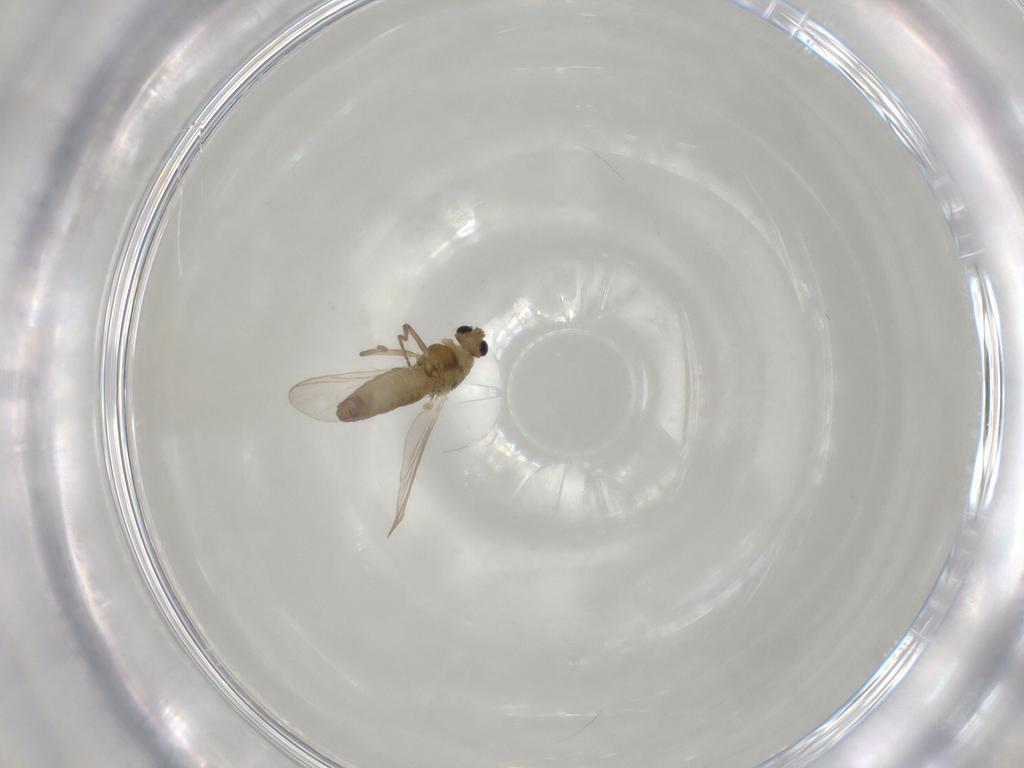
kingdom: Animalia
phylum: Arthropoda
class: Insecta
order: Diptera
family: Chironomidae
